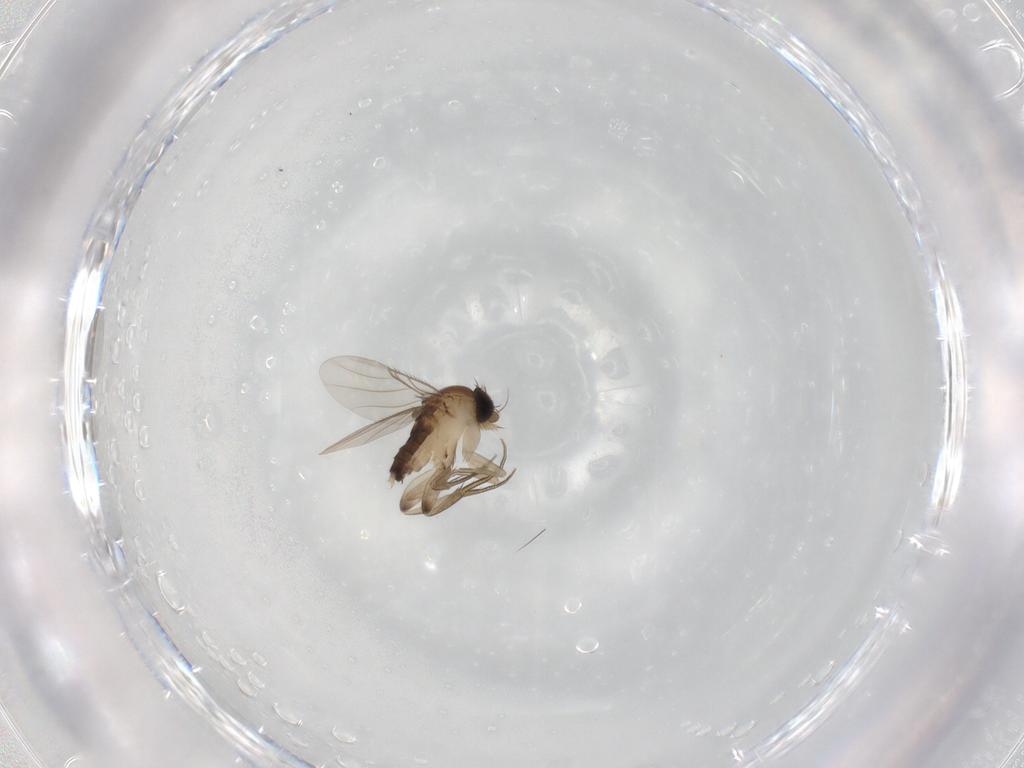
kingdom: Animalia
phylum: Arthropoda
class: Insecta
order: Diptera
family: Phoridae
